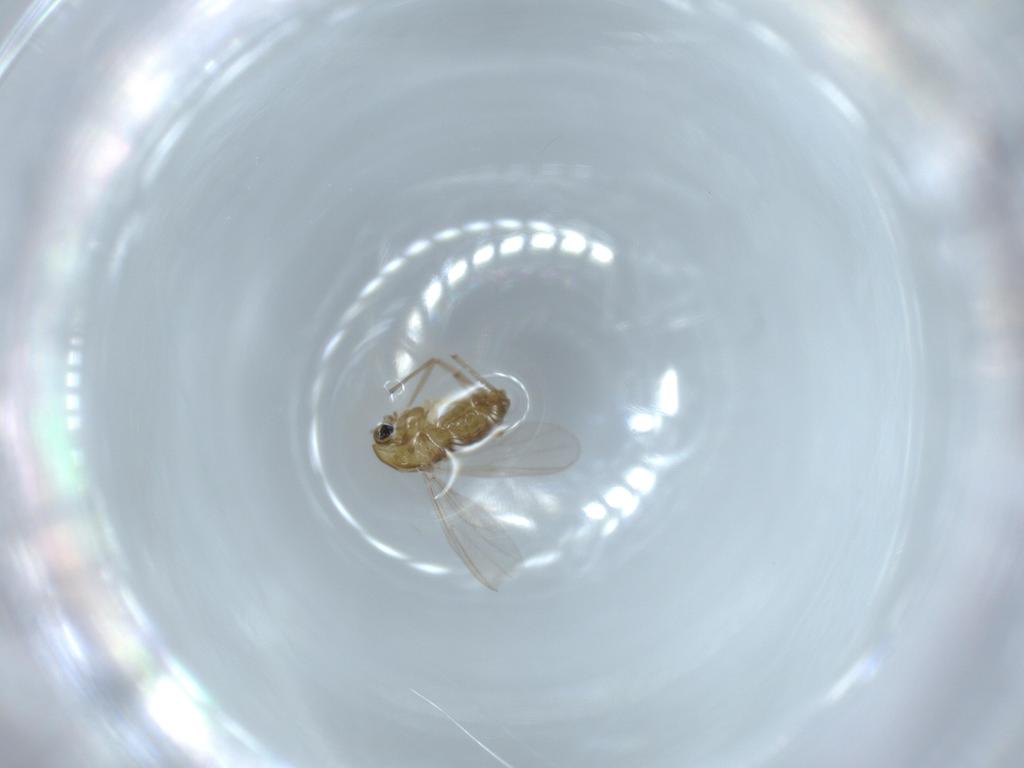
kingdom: Animalia
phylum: Arthropoda
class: Insecta
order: Diptera
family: Chironomidae
